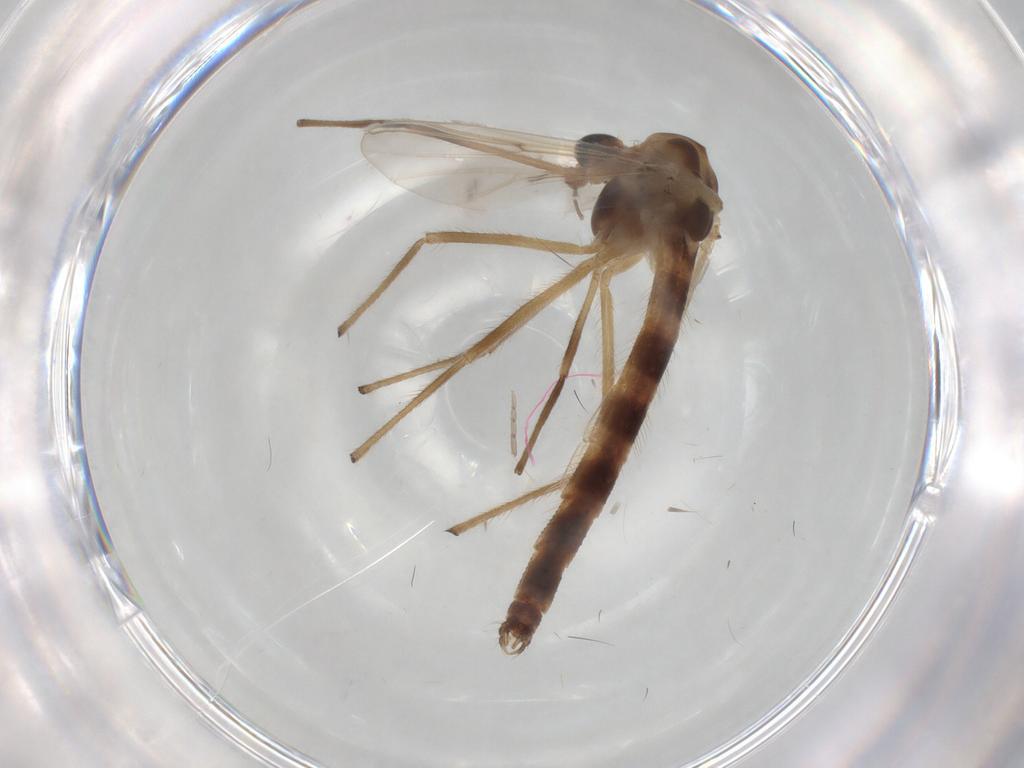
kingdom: Animalia
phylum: Arthropoda
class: Insecta
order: Diptera
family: Chironomidae
